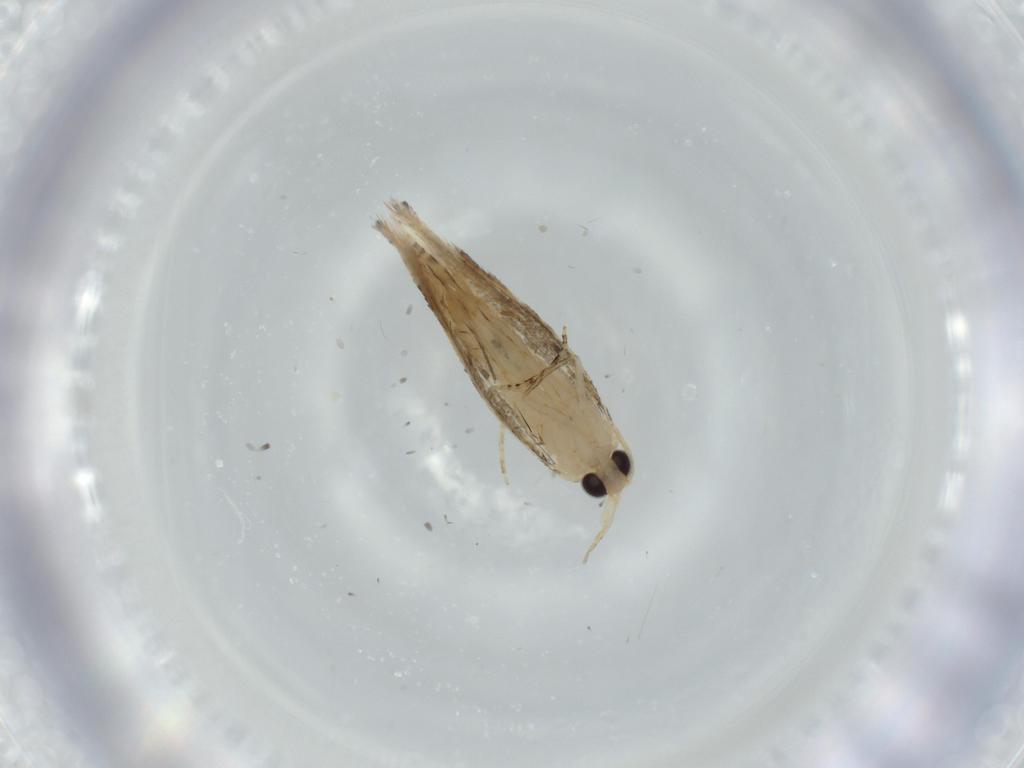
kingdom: Animalia
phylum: Arthropoda
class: Insecta
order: Lepidoptera
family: Bucculatricidae
